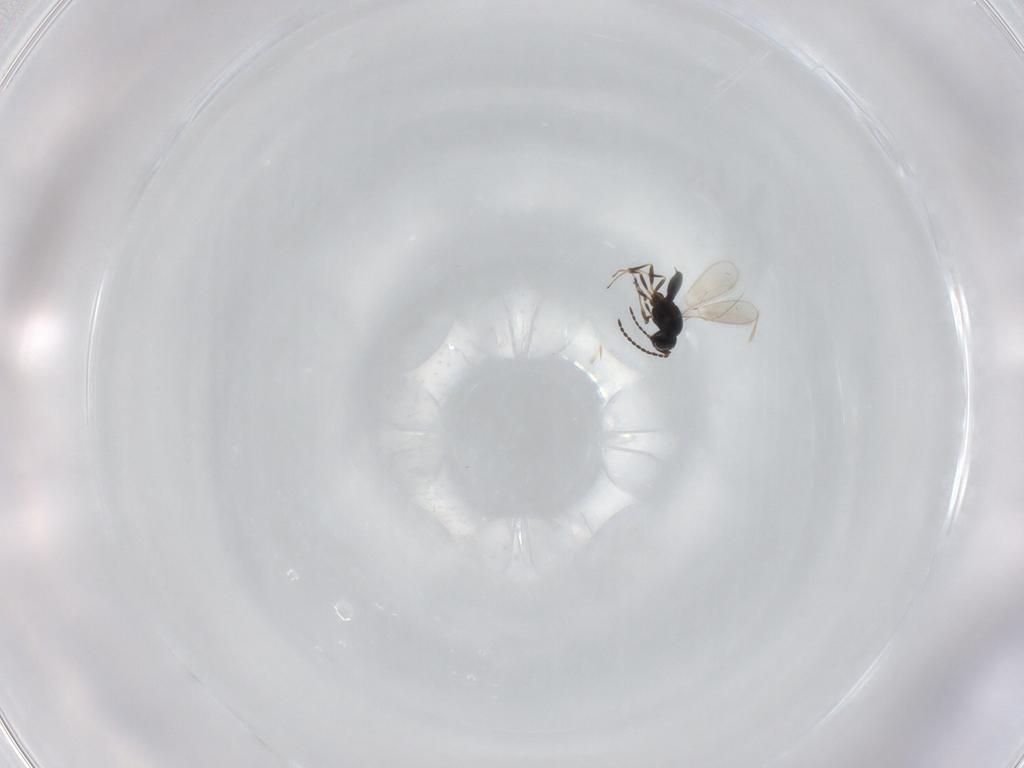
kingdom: Animalia
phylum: Arthropoda
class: Insecta
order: Hymenoptera
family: Scelionidae
